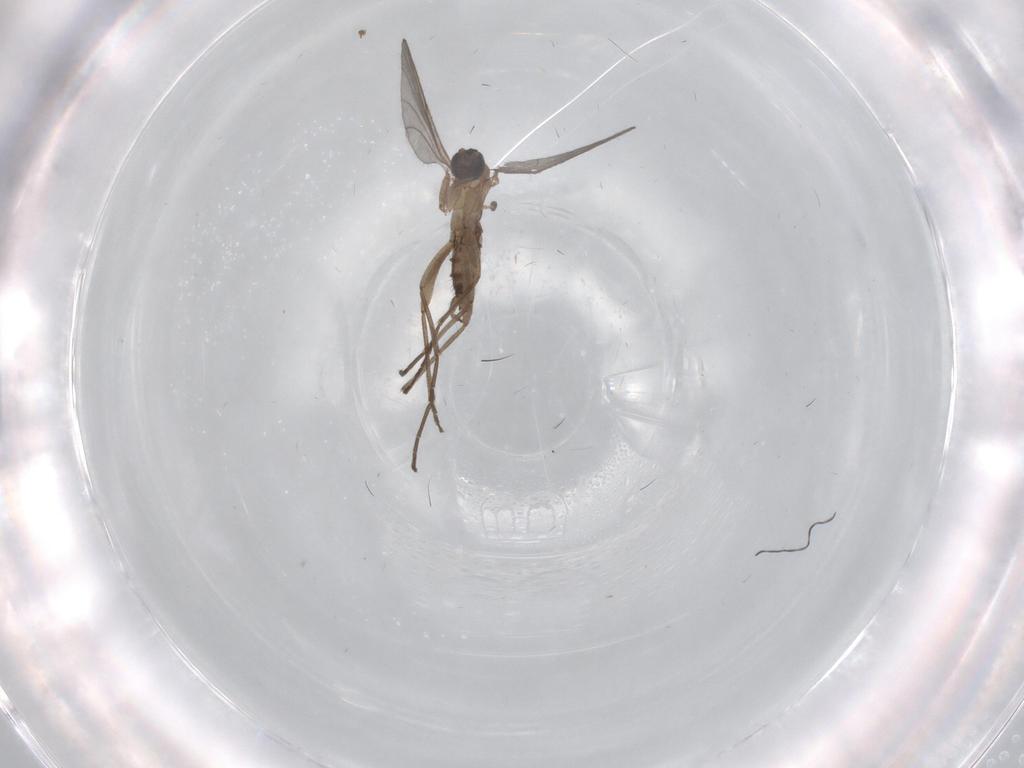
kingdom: Animalia
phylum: Arthropoda
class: Insecta
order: Diptera
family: Sciaridae
